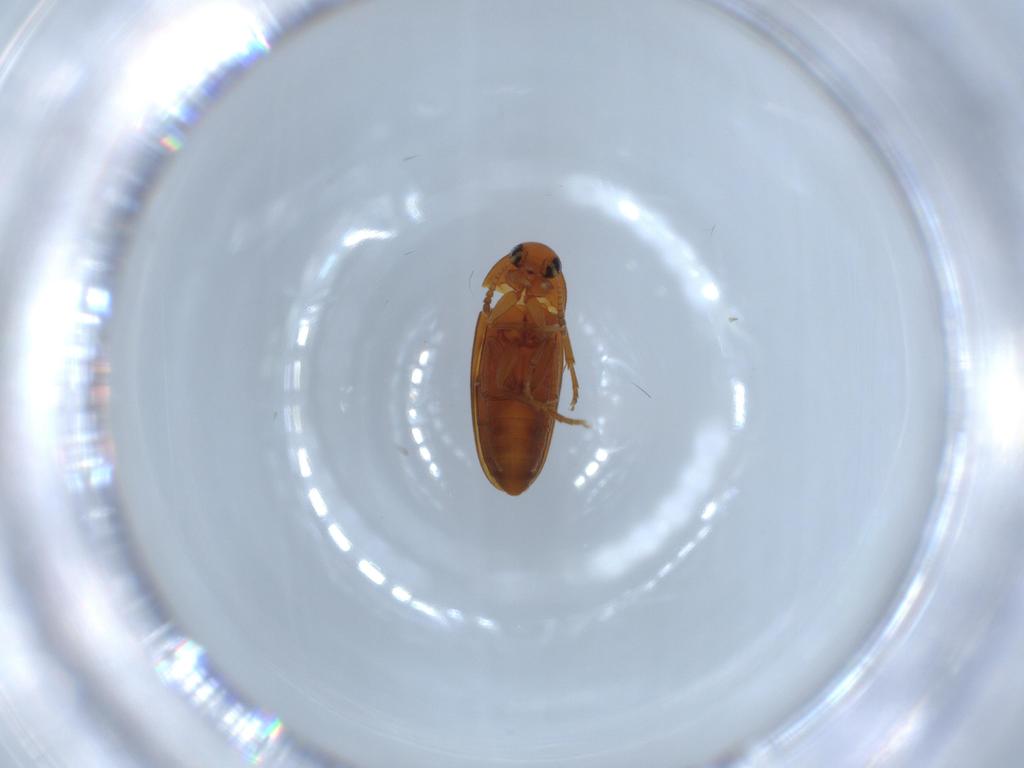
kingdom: Animalia
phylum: Arthropoda
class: Insecta
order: Coleoptera
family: Scraptiidae
